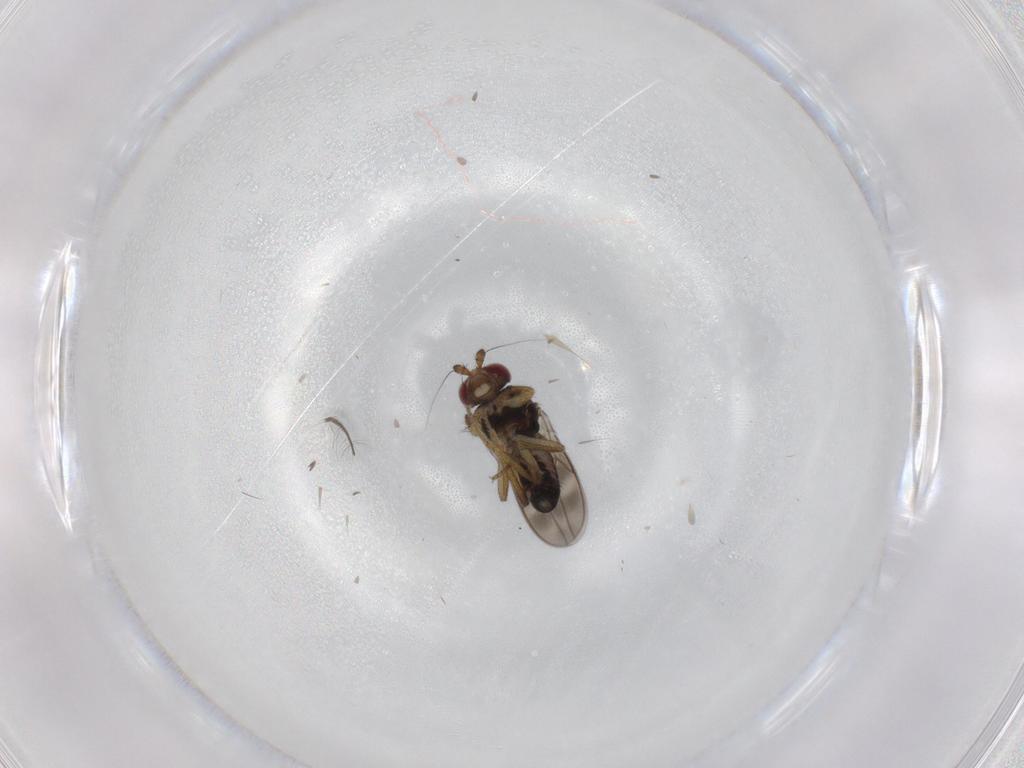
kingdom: Animalia
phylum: Arthropoda
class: Insecta
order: Diptera
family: Sphaeroceridae
